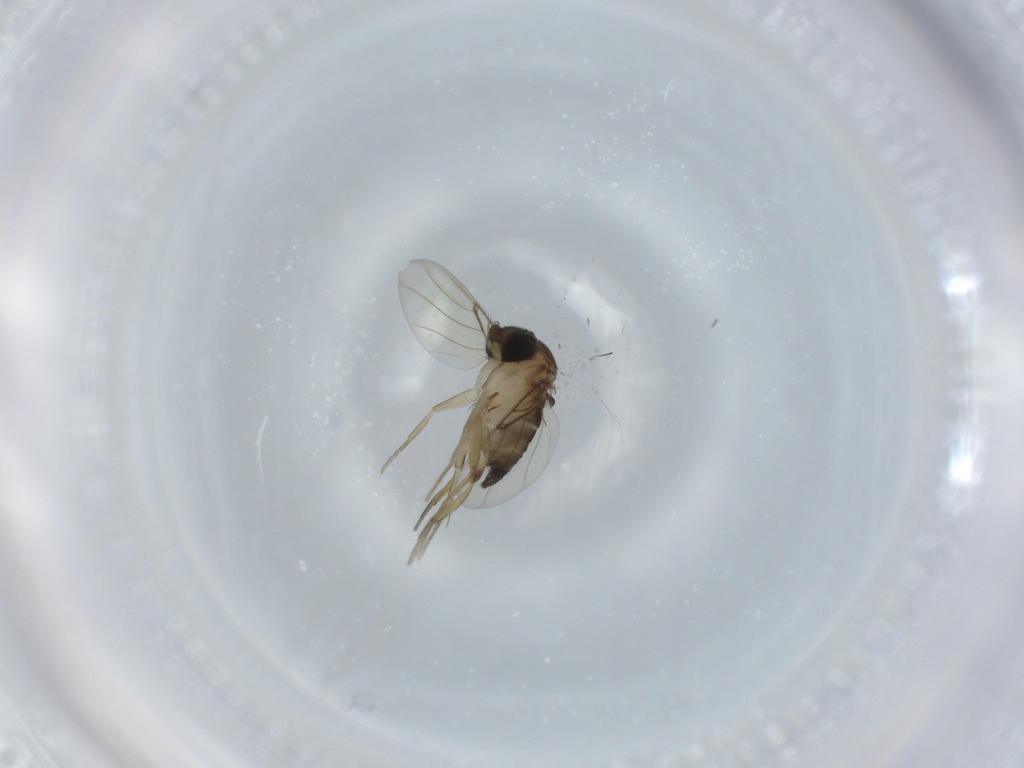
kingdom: Animalia
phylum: Arthropoda
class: Insecta
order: Diptera
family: Phoridae
